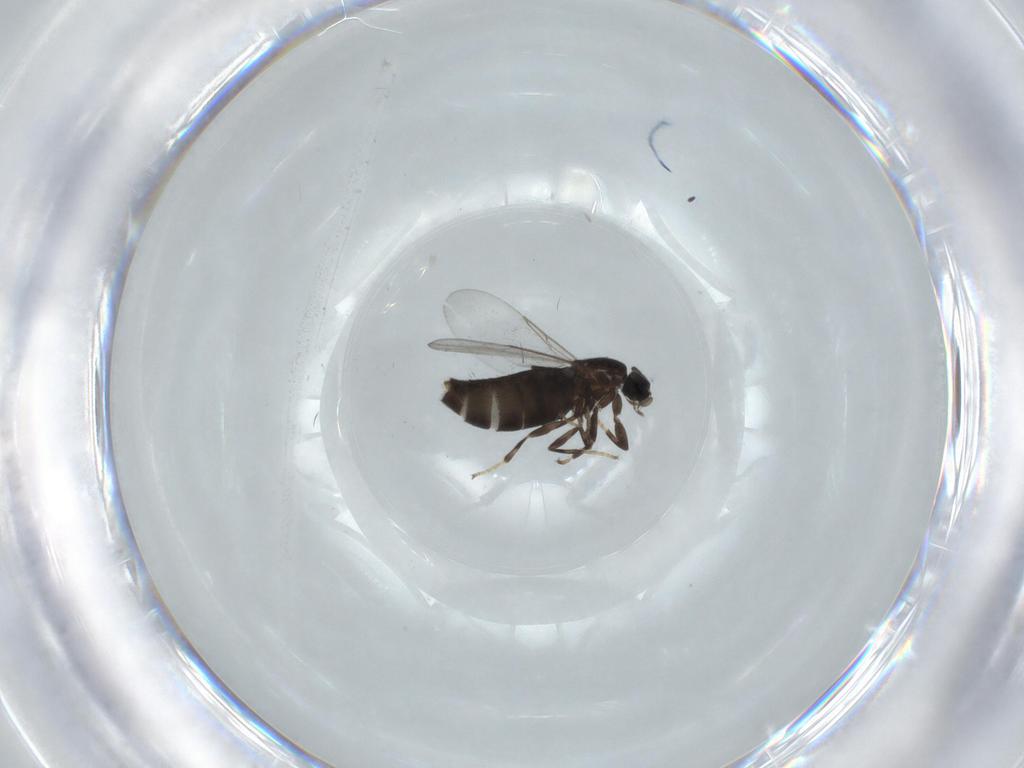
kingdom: Animalia
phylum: Arthropoda
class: Insecta
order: Diptera
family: Scatopsidae
